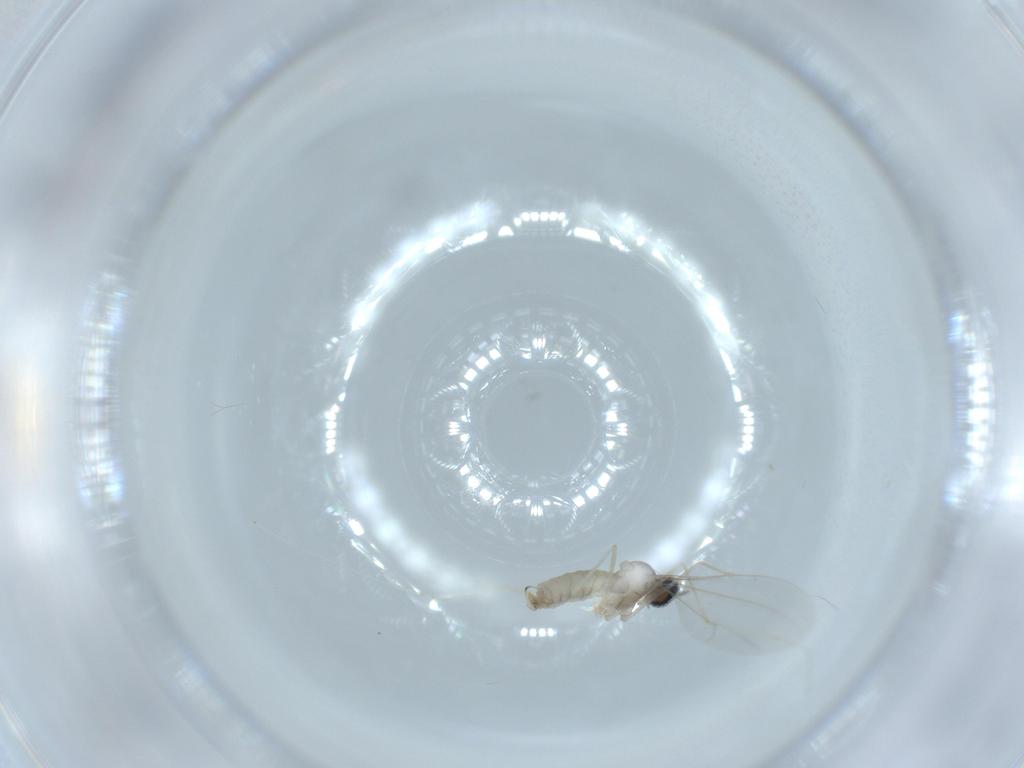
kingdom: Animalia
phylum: Arthropoda
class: Insecta
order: Diptera
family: Cecidomyiidae
